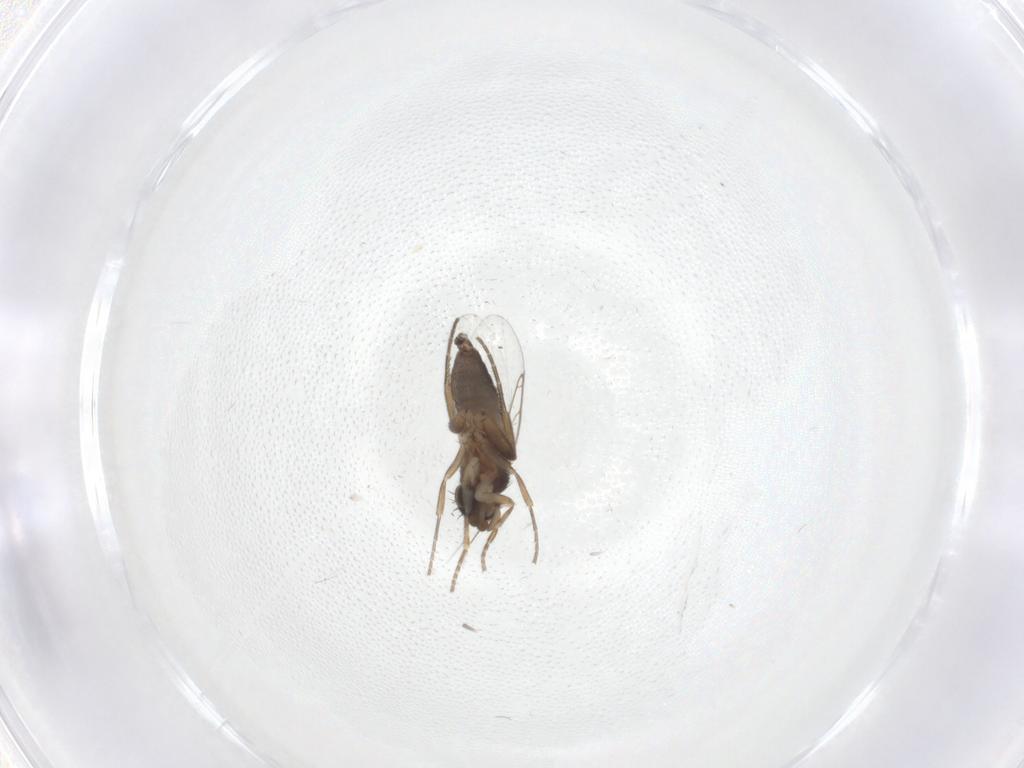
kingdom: Animalia
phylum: Arthropoda
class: Insecta
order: Diptera
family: Phoridae
